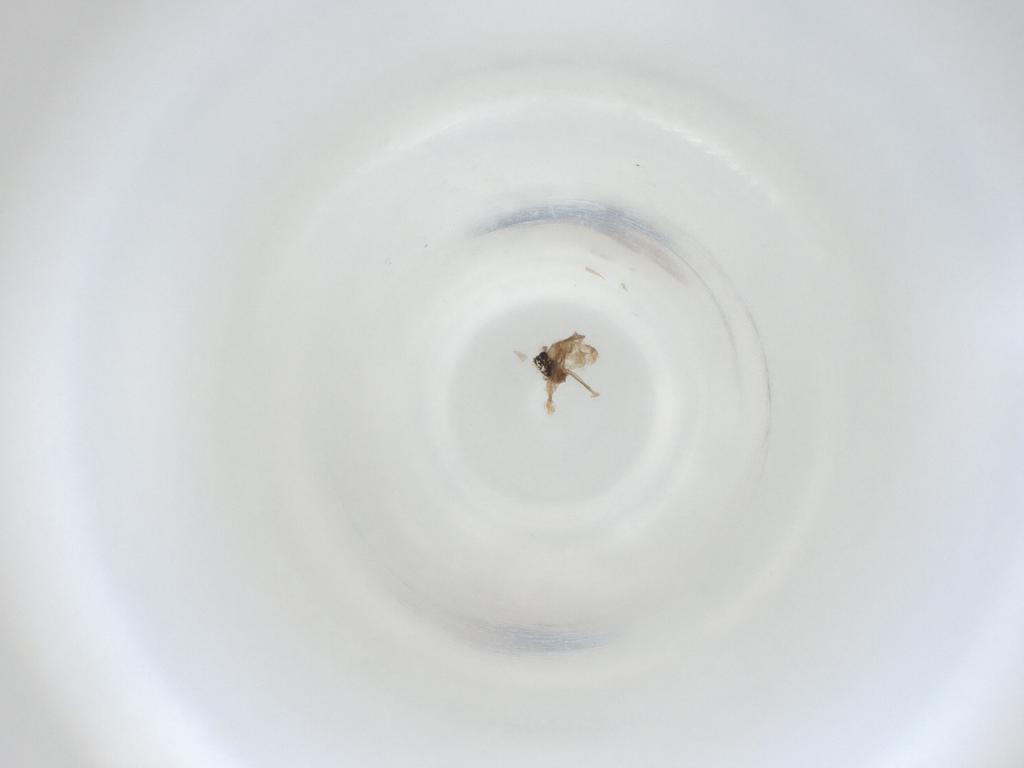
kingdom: Animalia
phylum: Arthropoda
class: Insecta
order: Diptera
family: Cecidomyiidae
